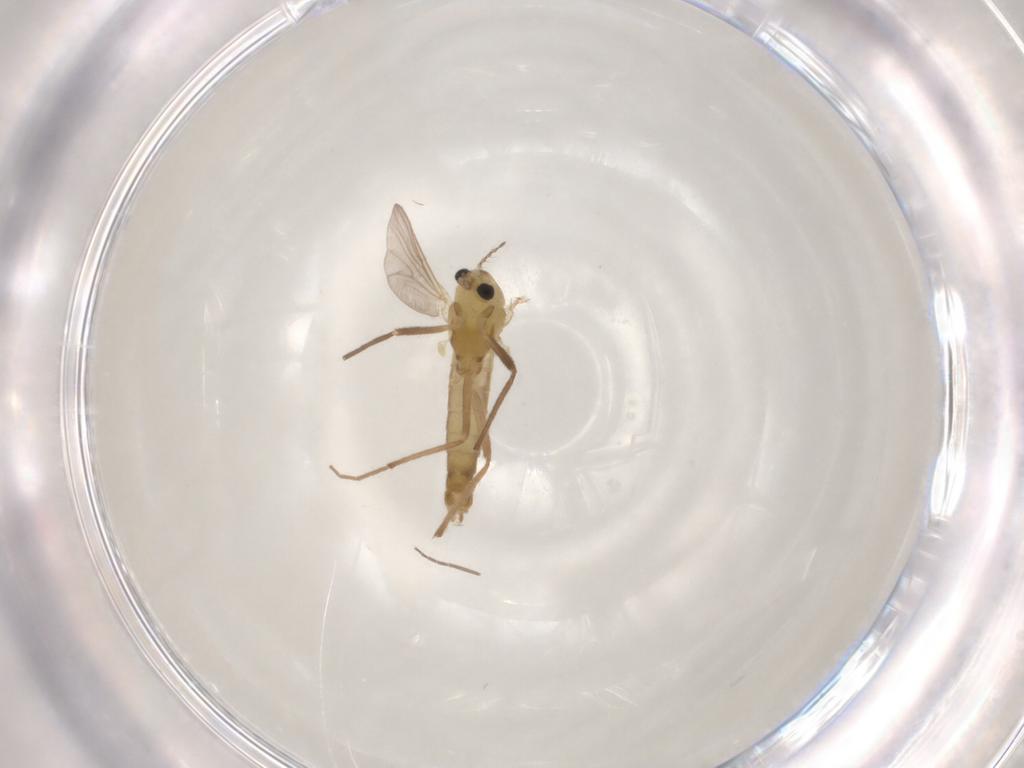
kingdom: Animalia
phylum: Arthropoda
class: Insecta
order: Diptera
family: Chironomidae
